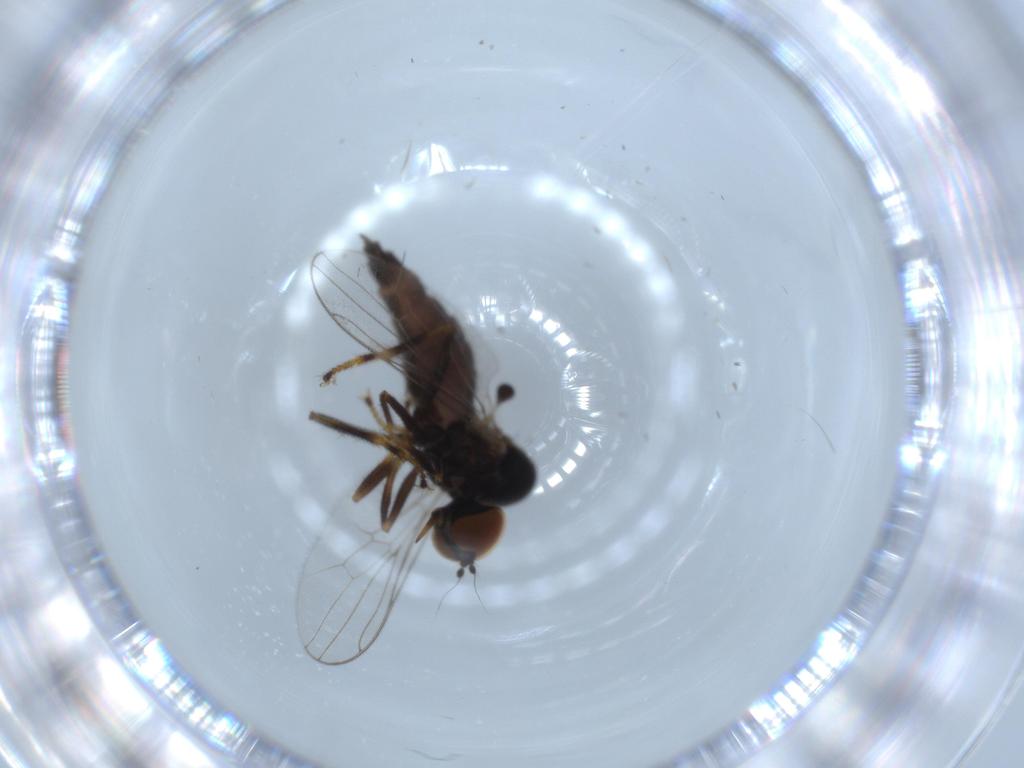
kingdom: Animalia
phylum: Arthropoda
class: Insecta
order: Diptera
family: Hybotidae
